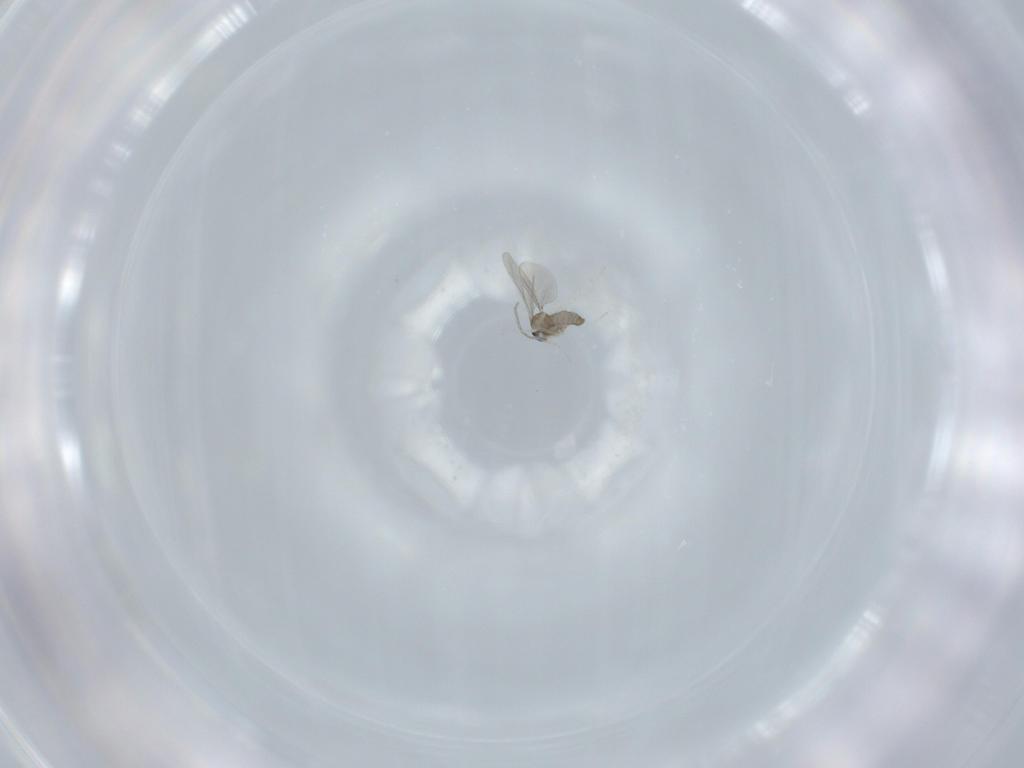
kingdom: Animalia
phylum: Arthropoda
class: Insecta
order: Diptera
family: Cecidomyiidae
